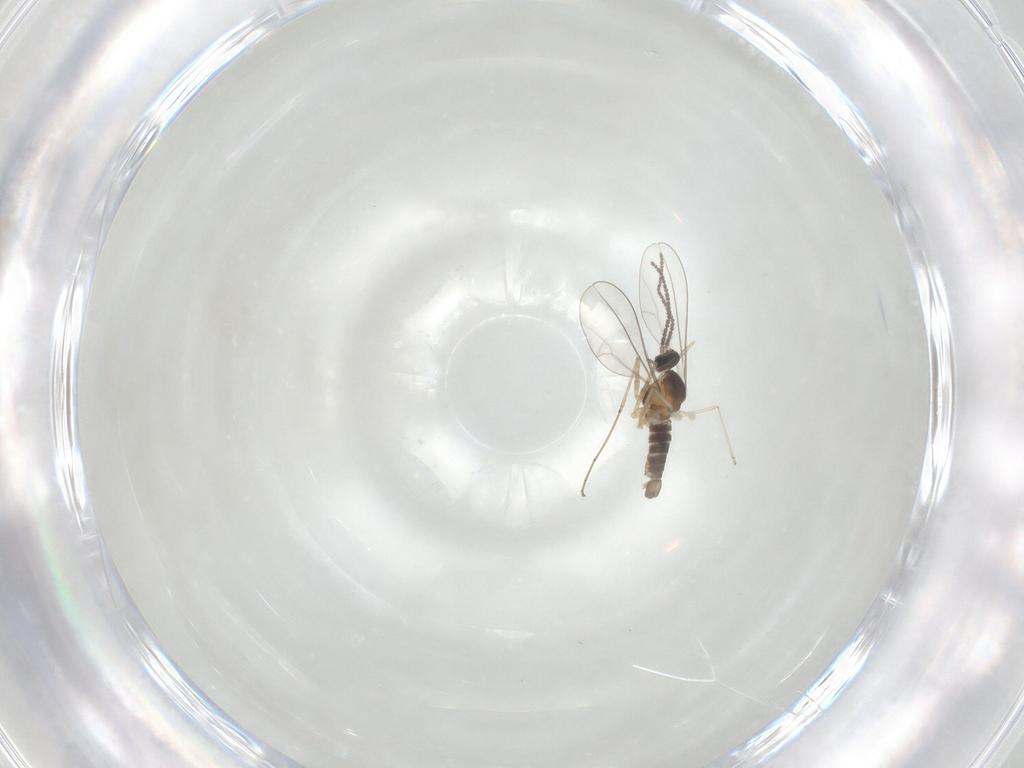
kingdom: Animalia
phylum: Arthropoda
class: Insecta
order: Diptera
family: Cecidomyiidae
